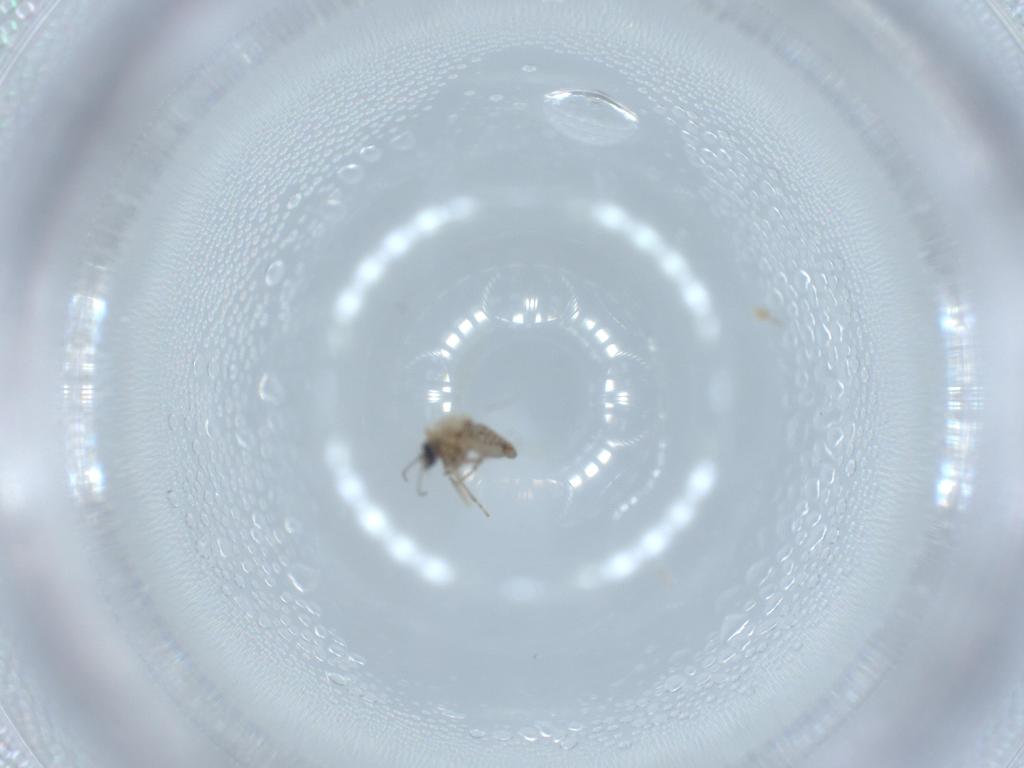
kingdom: Animalia
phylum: Arthropoda
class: Insecta
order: Diptera
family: Ceratopogonidae
